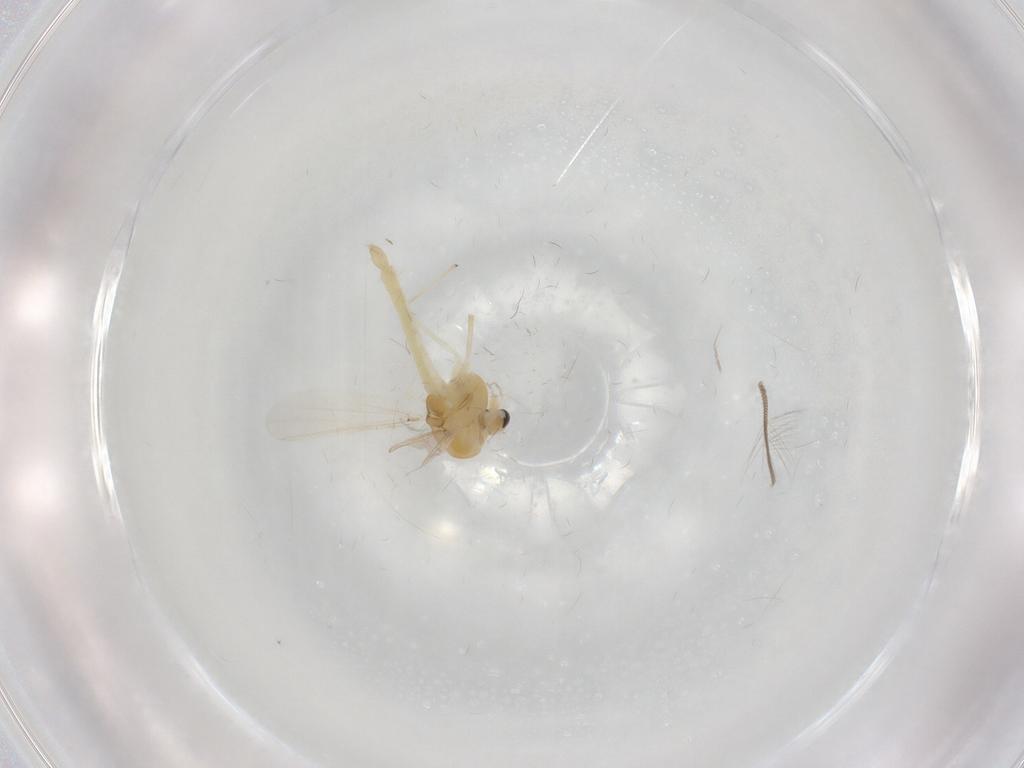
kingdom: Animalia
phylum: Arthropoda
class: Insecta
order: Diptera
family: Chironomidae
